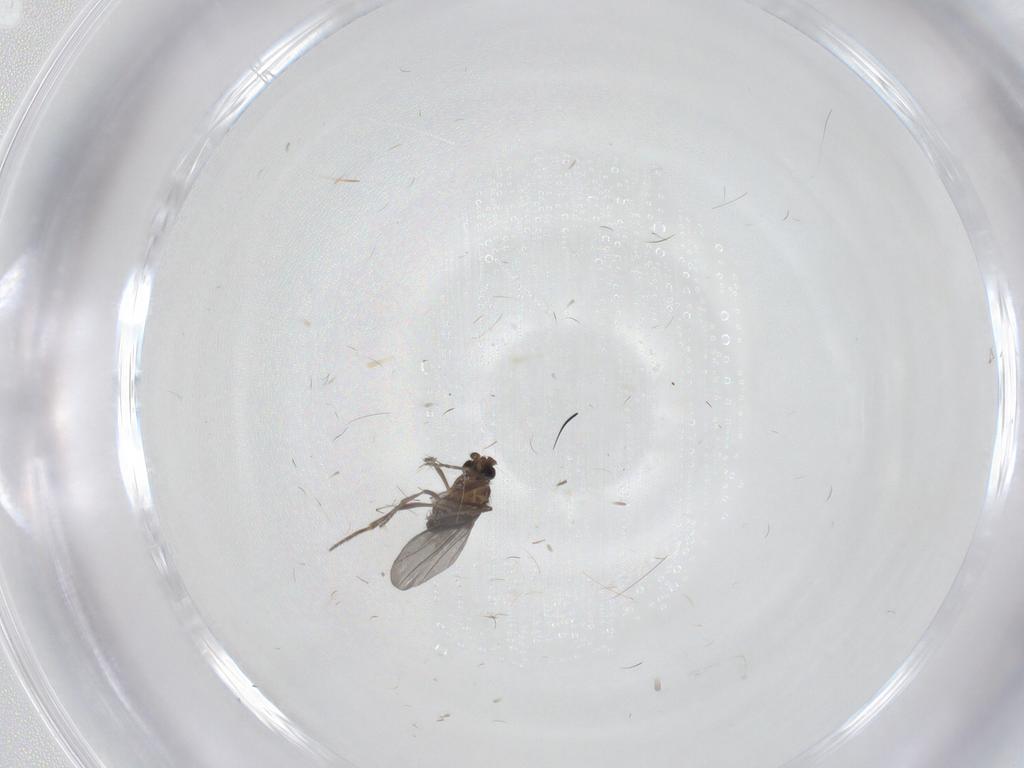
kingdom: Animalia
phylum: Arthropoda
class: Insecta
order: Diptera
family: Phoridae
